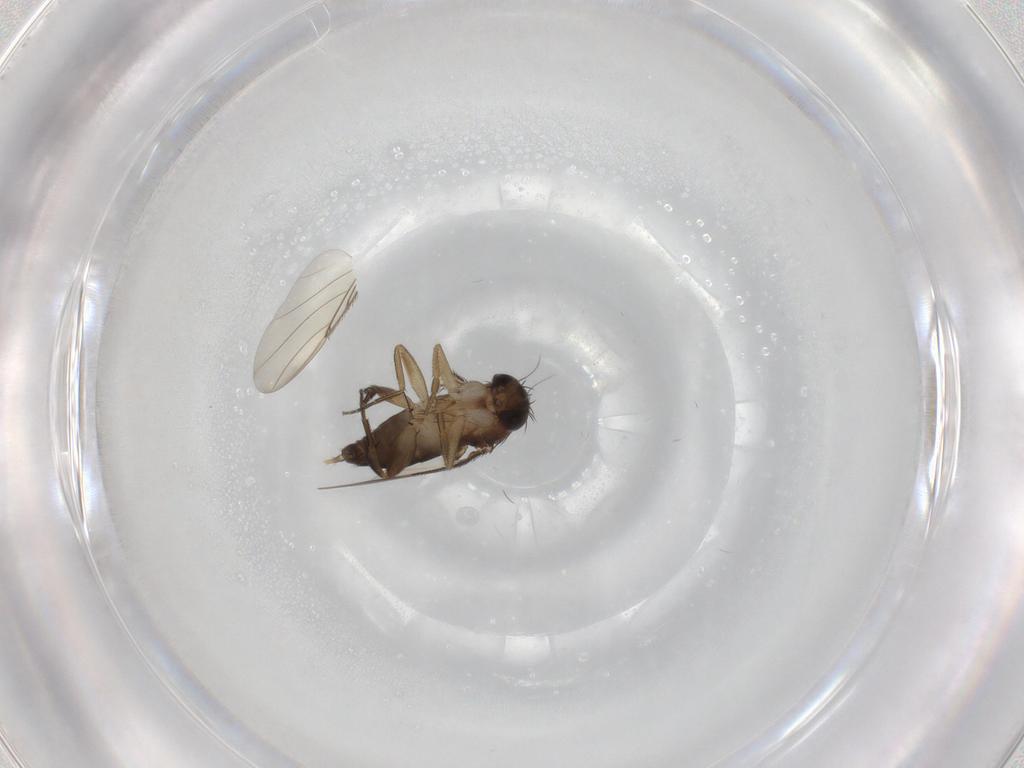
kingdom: Animalia
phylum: Arthropoda
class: Insecta
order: Diptera
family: Phoridae
